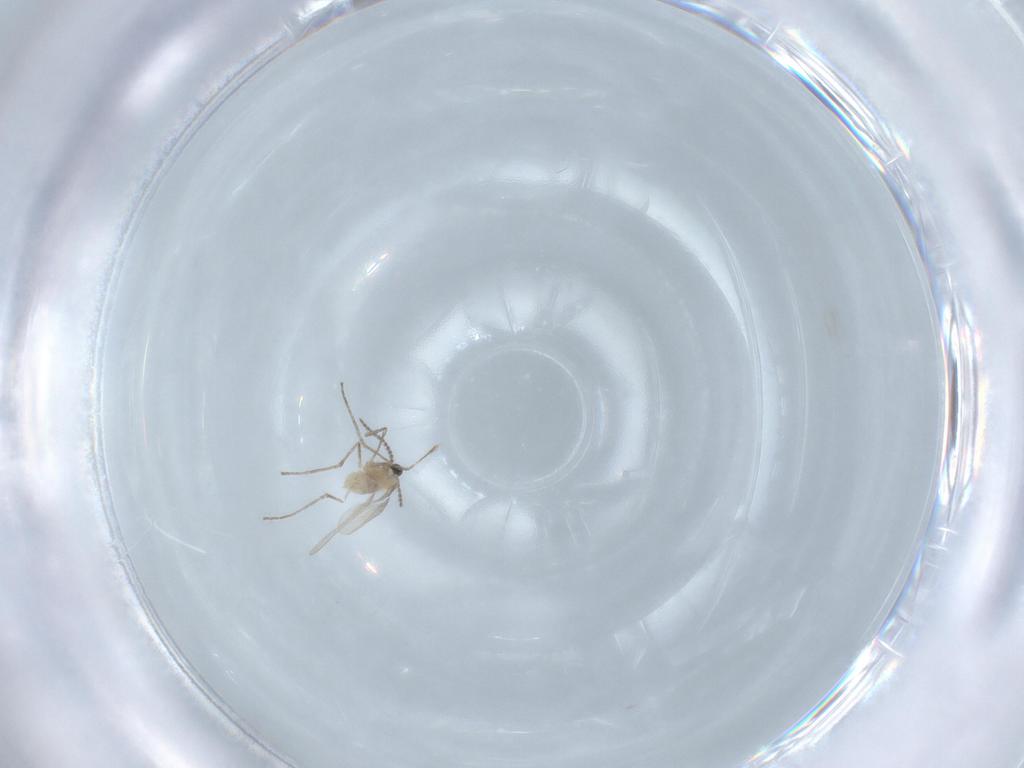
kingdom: Animalia
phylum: Arthropoda
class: Insecta
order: Diptera
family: Cecidomyiidae
